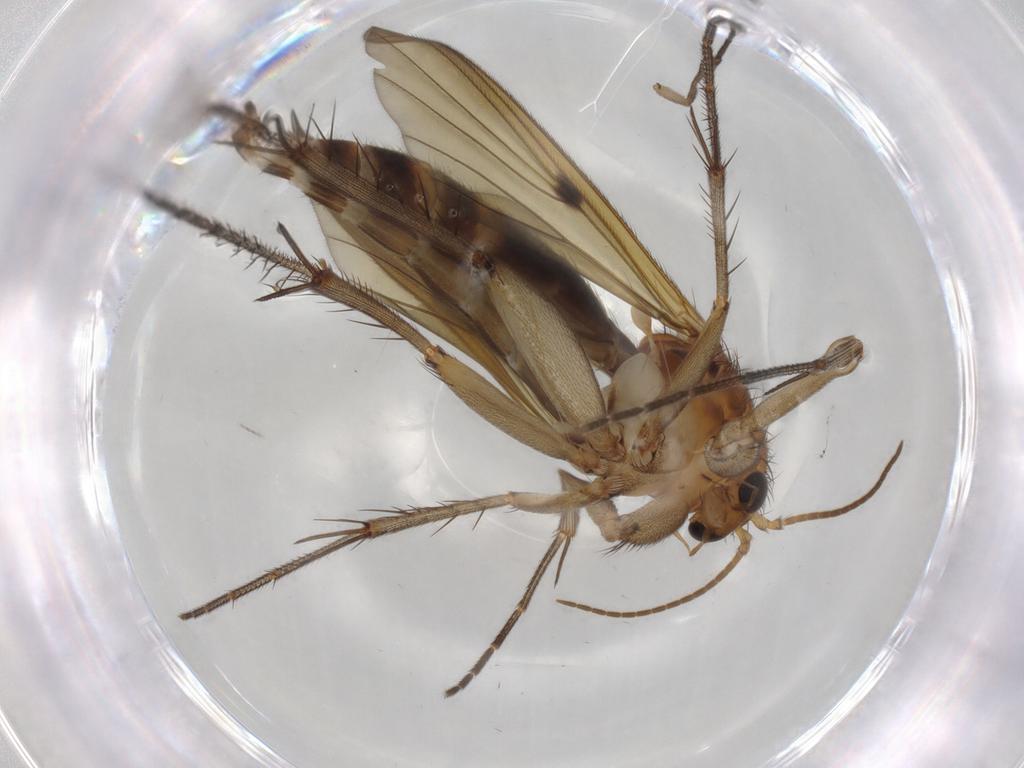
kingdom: Animalia
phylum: Arthropoda
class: Insecta
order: Diptera
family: Mycetophilidae
